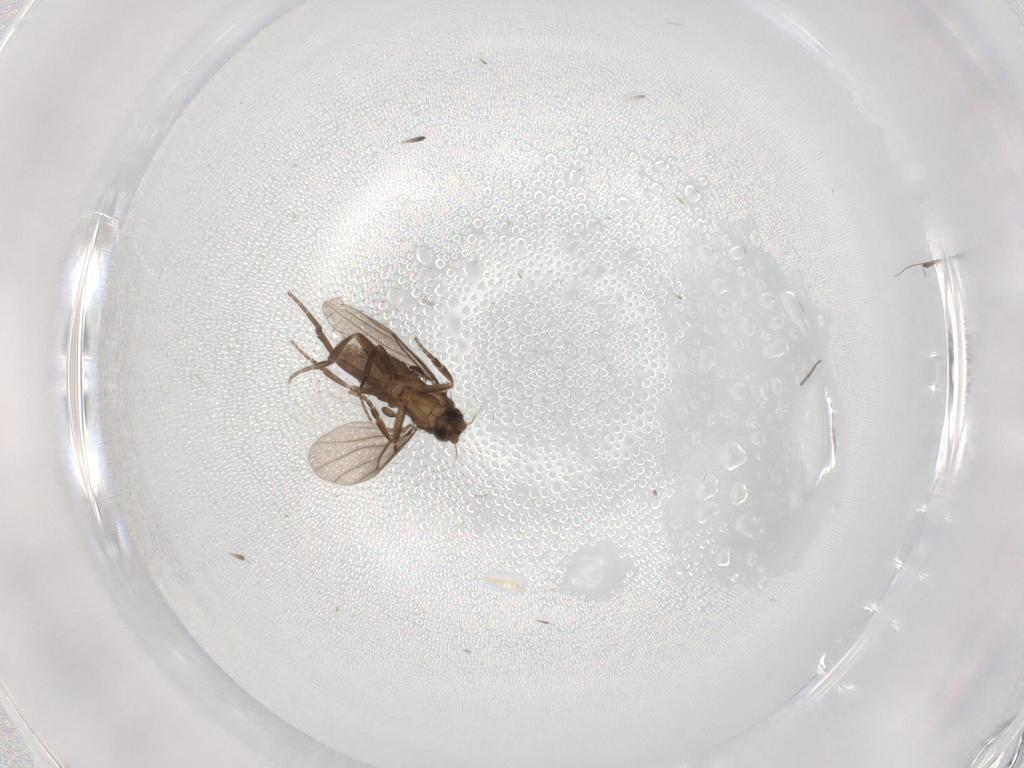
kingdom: Animalia
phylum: Arthropoda
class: Insecta
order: Diptera
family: Phoridae
